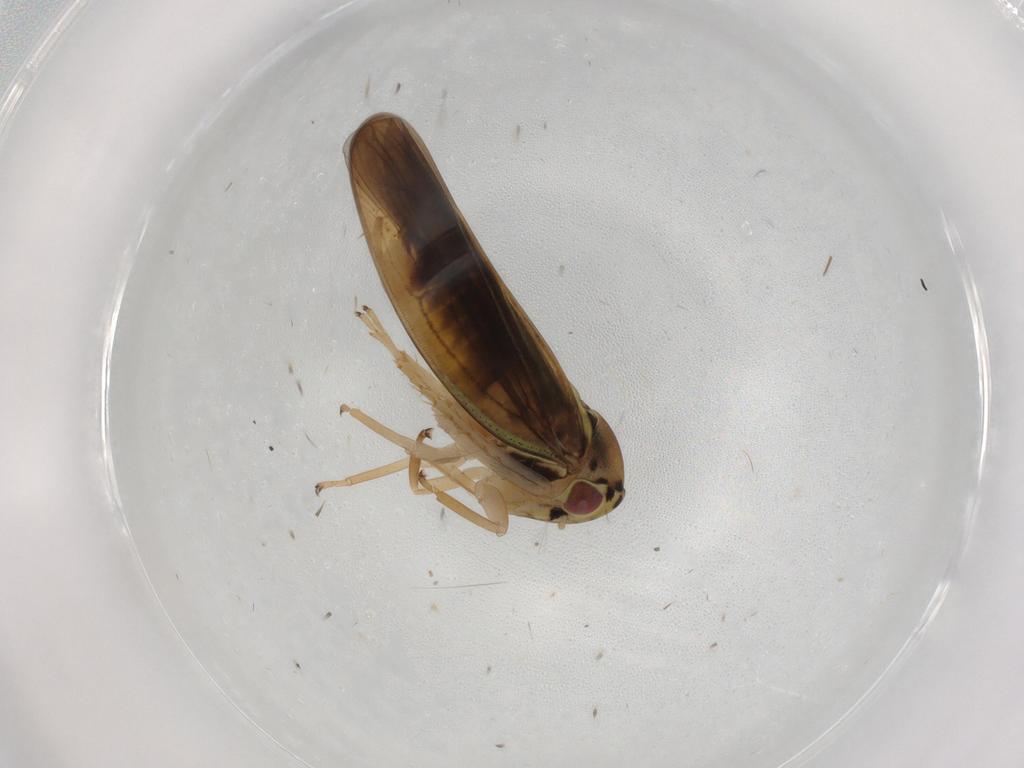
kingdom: Animalia
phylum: Arthropoda
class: Insecta
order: Hemiptera
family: Cicadellidae
